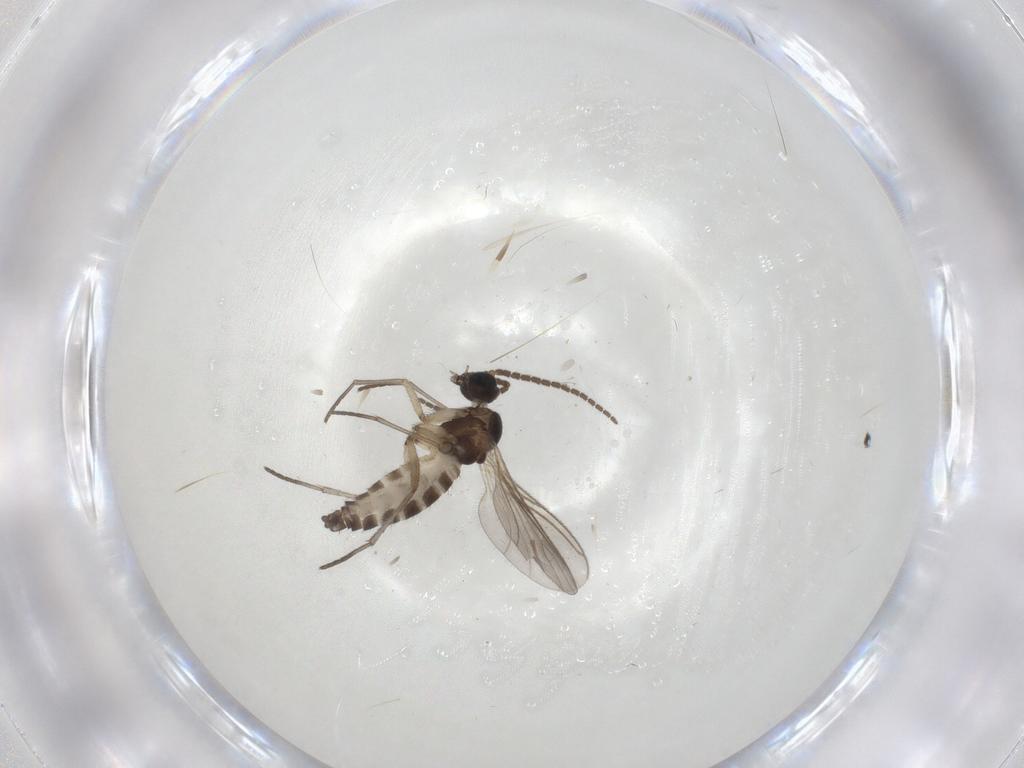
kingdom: Animalia
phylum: Arthropoda
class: Insecta
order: Diptera
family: Sciaridae
